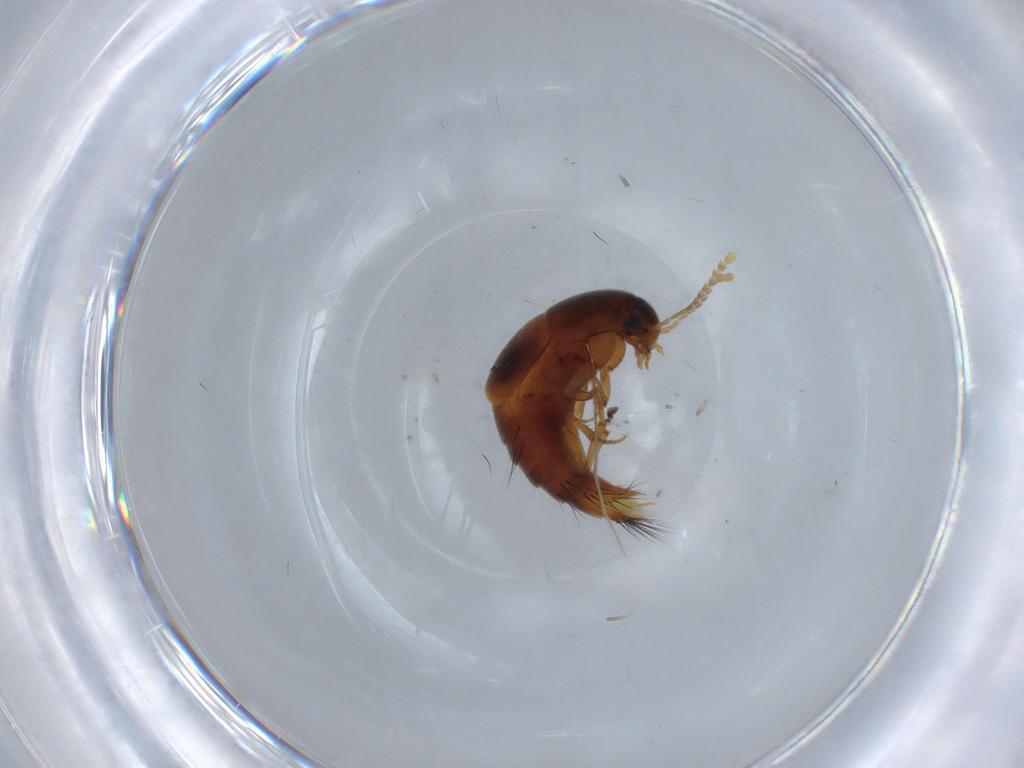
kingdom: Animalia
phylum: Arthropoda
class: Insecta
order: Coleoptera
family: Staphylinidae
